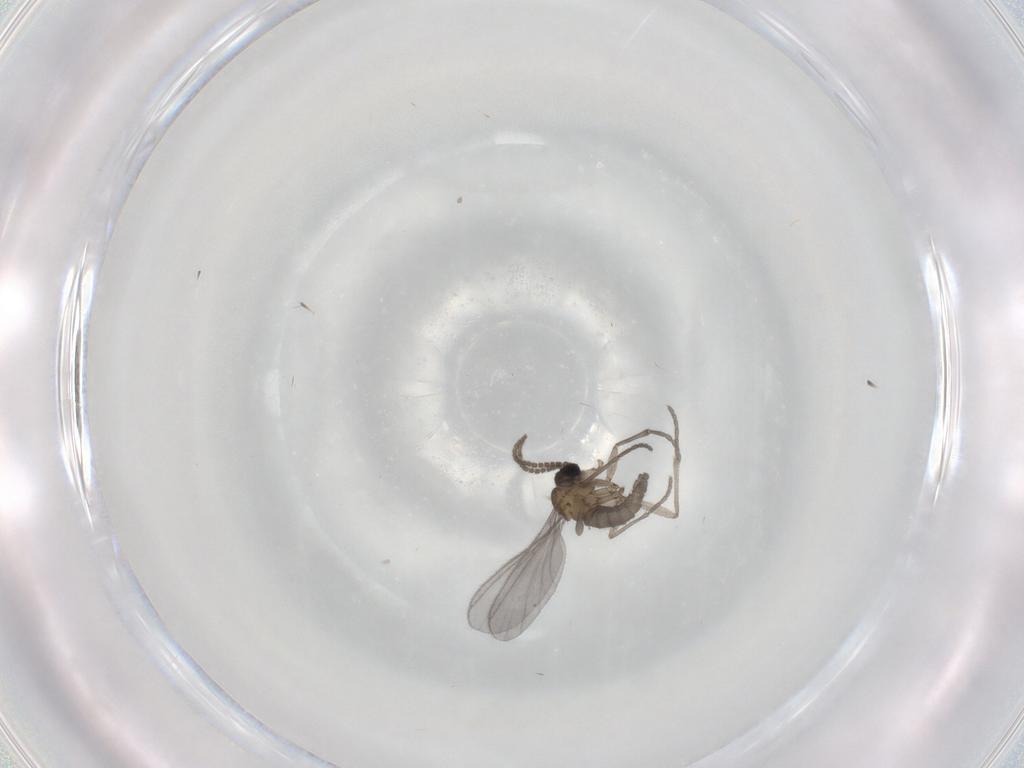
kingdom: Animalia
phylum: Arthropoda
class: Insecta
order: Diptera
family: Sciaridae
